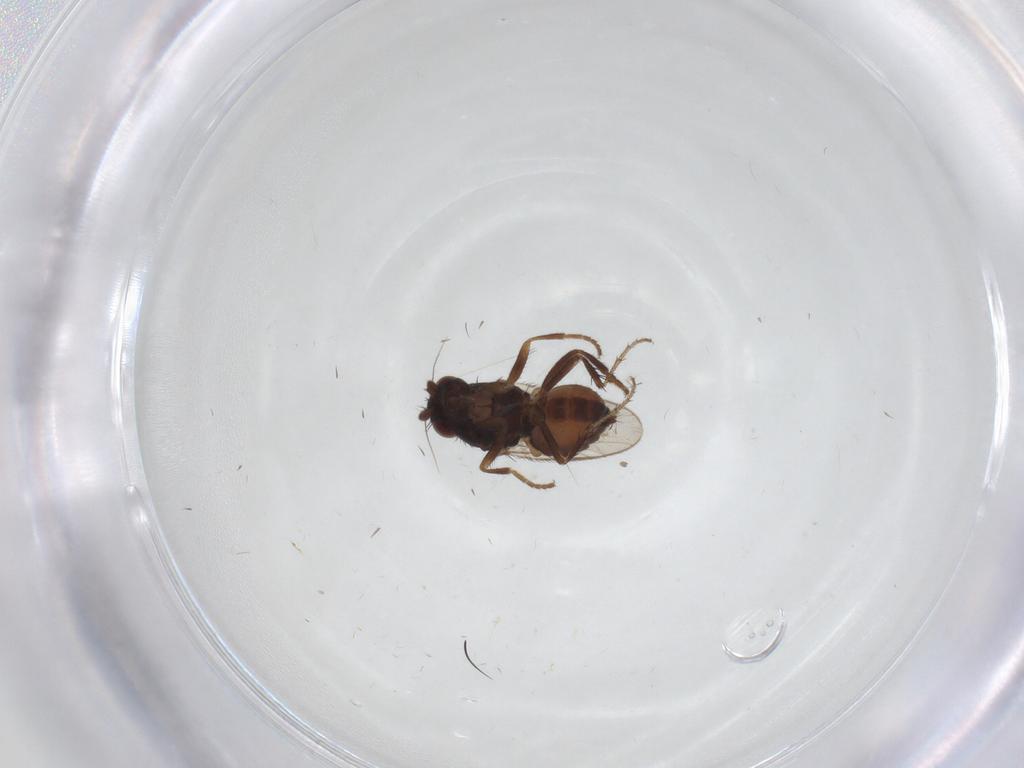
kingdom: Animalia
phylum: Arthropoda
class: Insecta
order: Diptera
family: Sphaeroceridae
